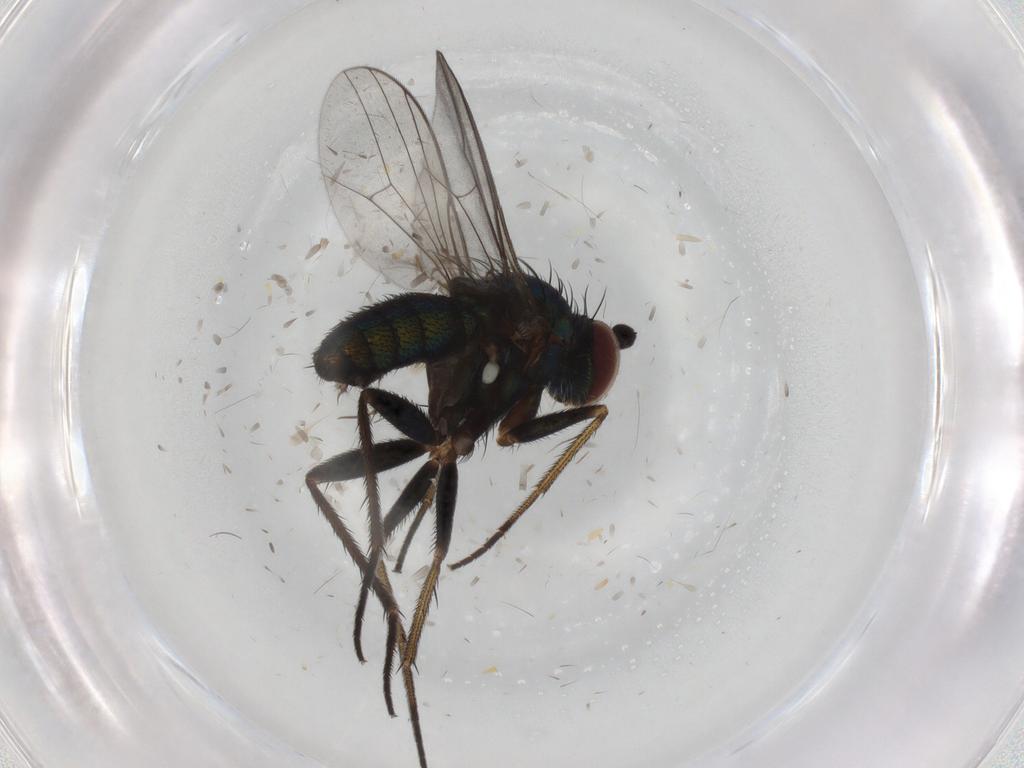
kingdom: Animalia
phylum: Arthropoda
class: Insecta
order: Diptera
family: Dolichopodidae
